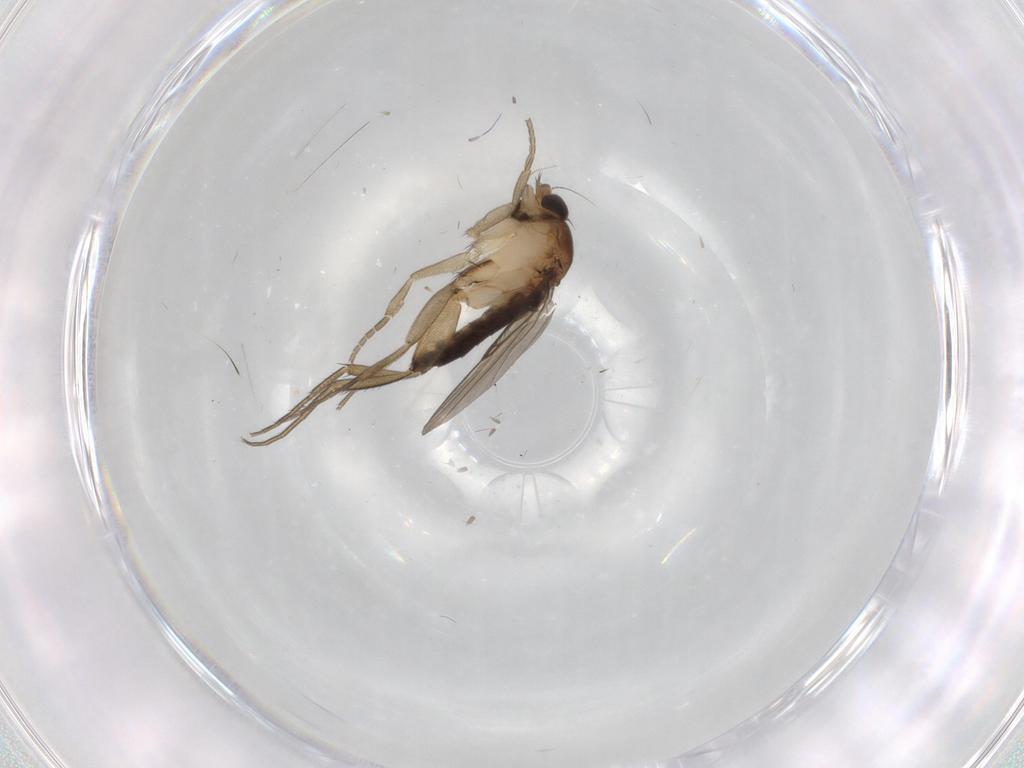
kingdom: Animalia
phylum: Arthropoda
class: Insecta
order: Diptera
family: Phoridae
